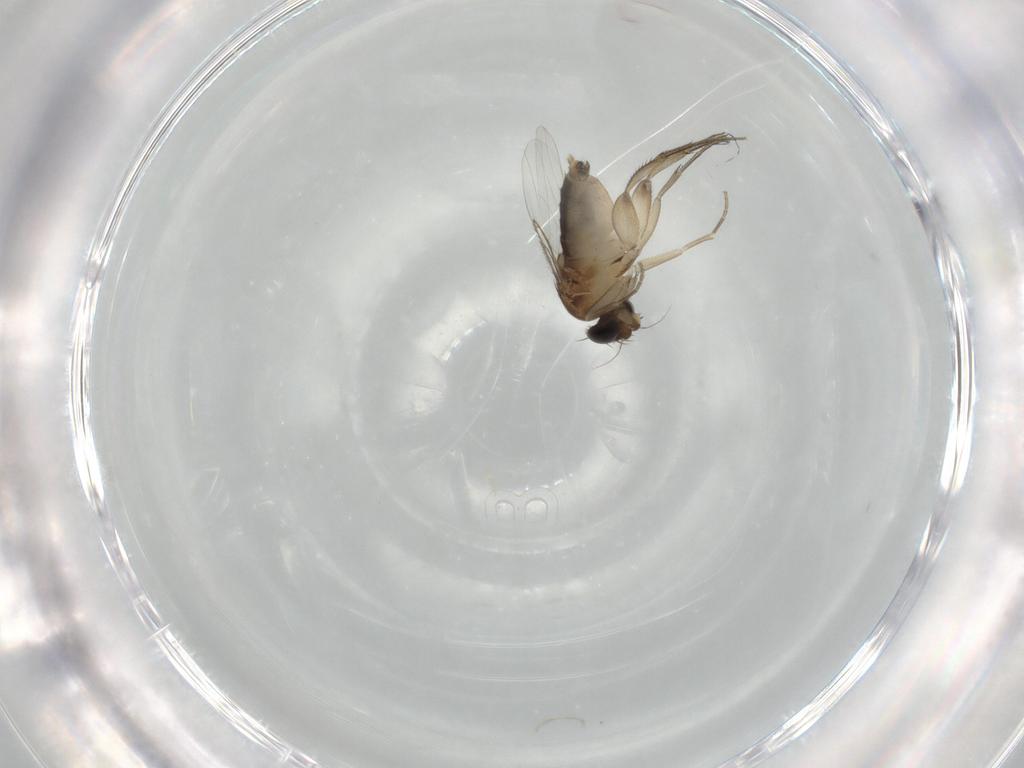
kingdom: Animalia
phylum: Arthropoda
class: Insecta
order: Diptera
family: Phoridae
